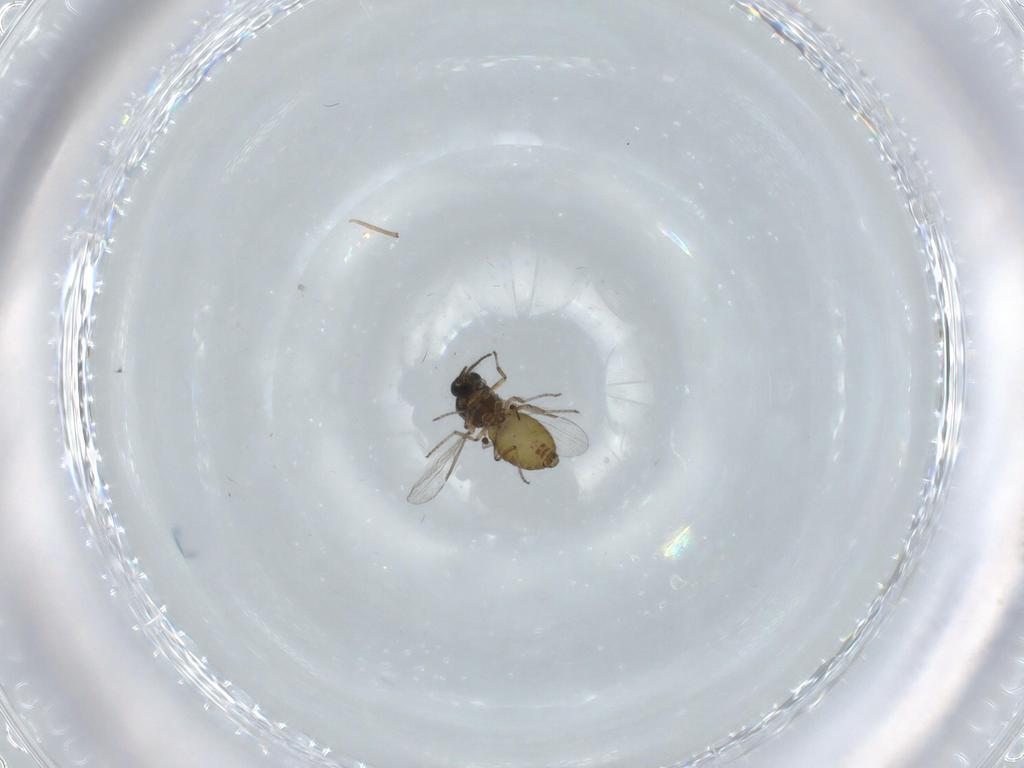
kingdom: Animalia
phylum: Arthropoda
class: Insecta
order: Diptera
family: Ceratopogonidae
